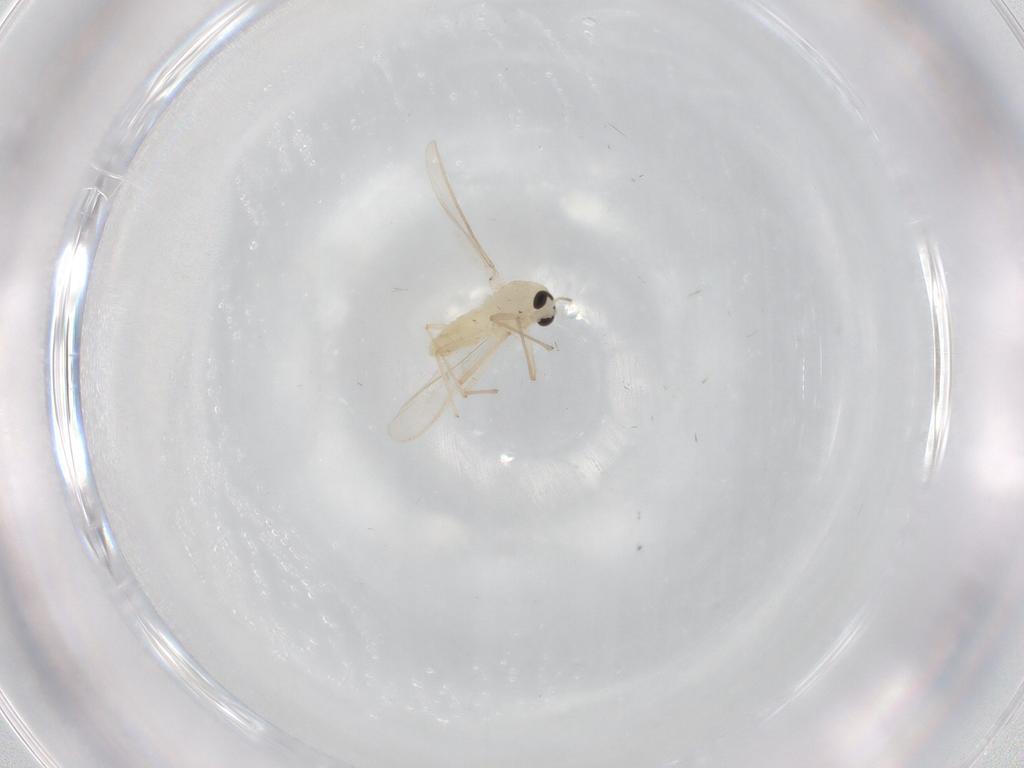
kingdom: Animalia
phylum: Arthropoda
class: Insecta
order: Diptera
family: Chironomidae
